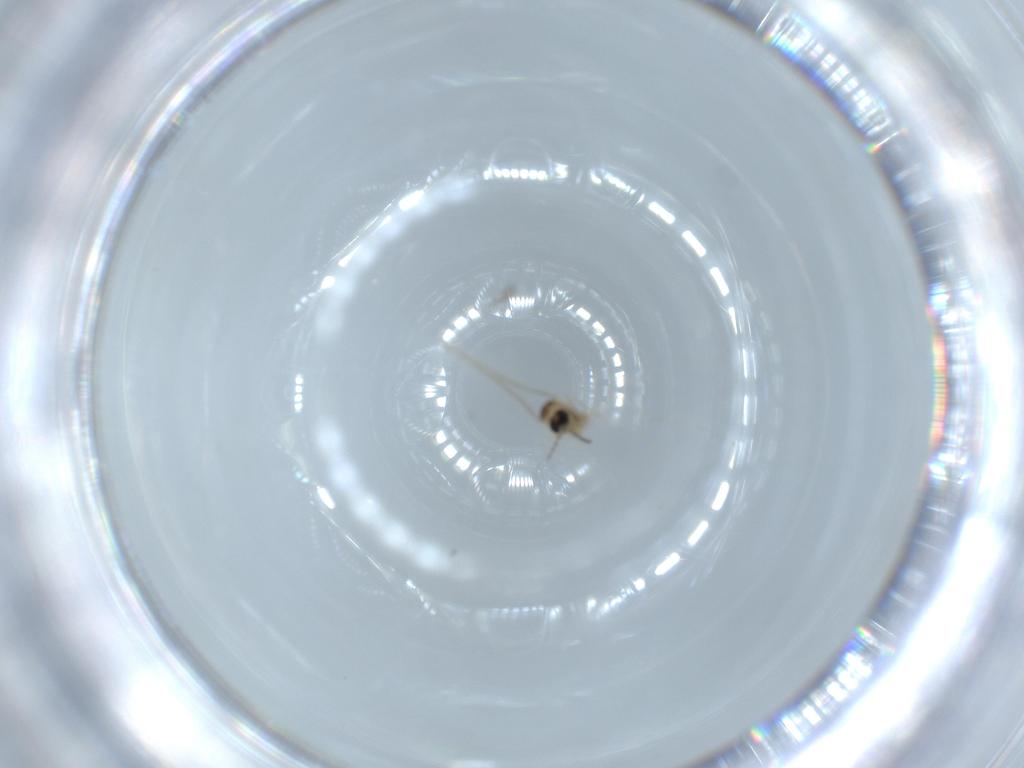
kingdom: Animalia
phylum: Arthropoda
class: Insecta
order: Diptera
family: Cecidomyiidae
